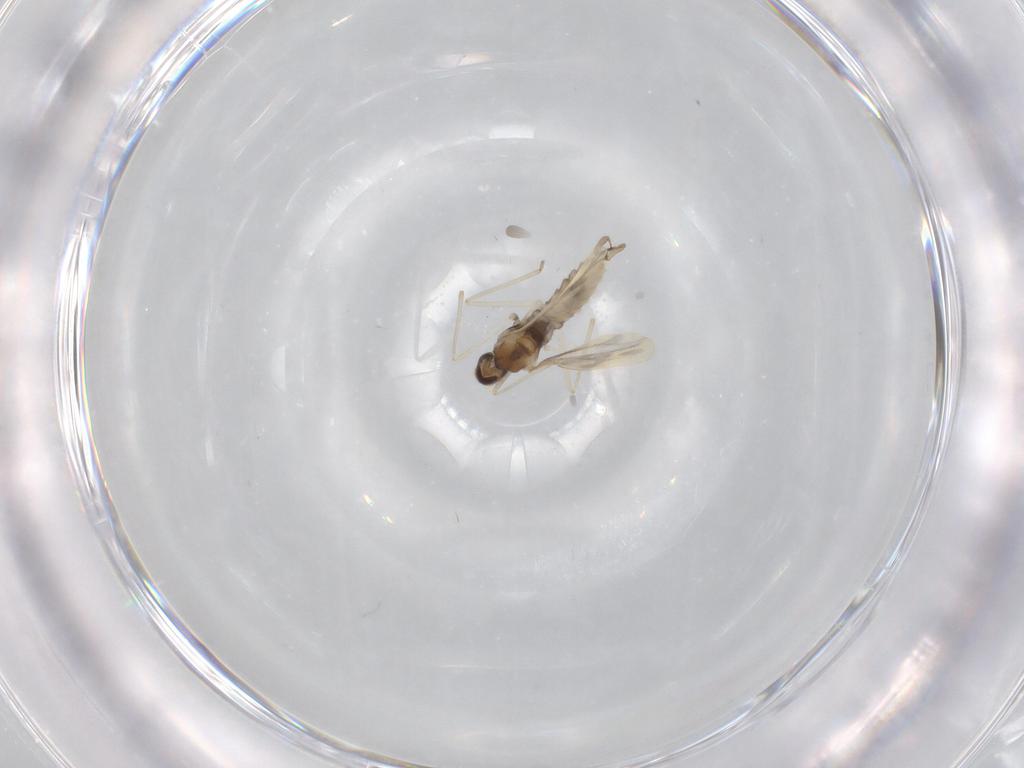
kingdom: Animalia
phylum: Arthropoda
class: Insecta
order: Diptera
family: Cecidomyiidae
